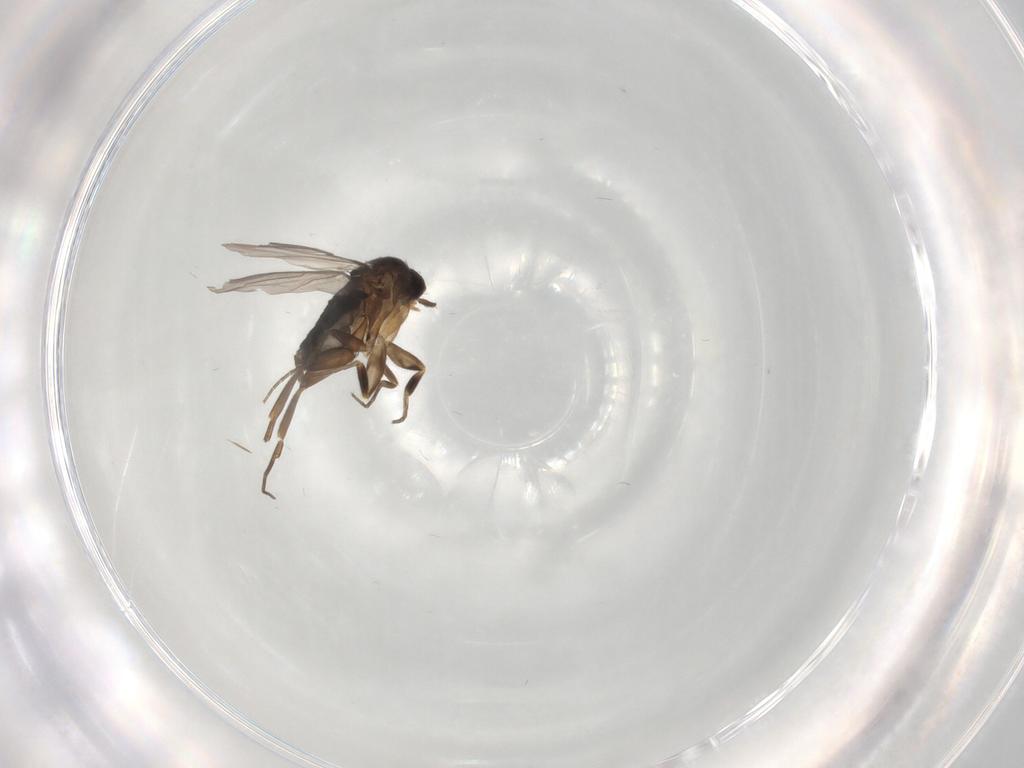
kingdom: Animalia
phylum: Arthropoda
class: Insecta
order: Diptera
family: Phoridae
